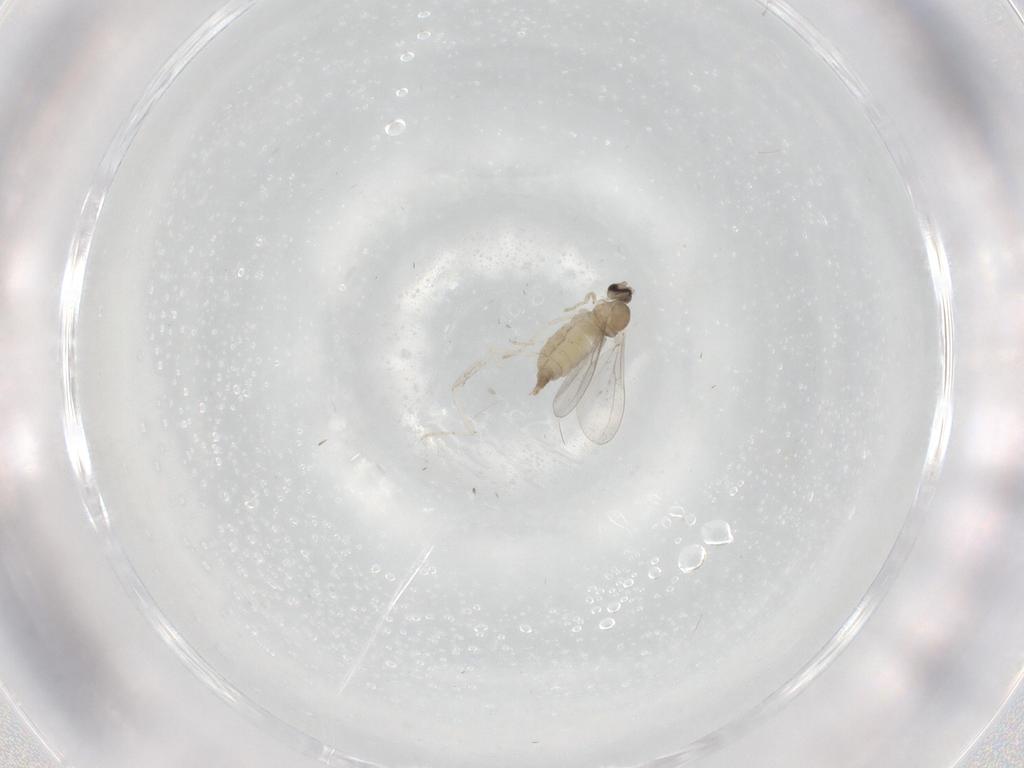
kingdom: Animalia
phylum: Arthropoda
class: Insecta
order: Diptera
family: Cecidomyiidae
